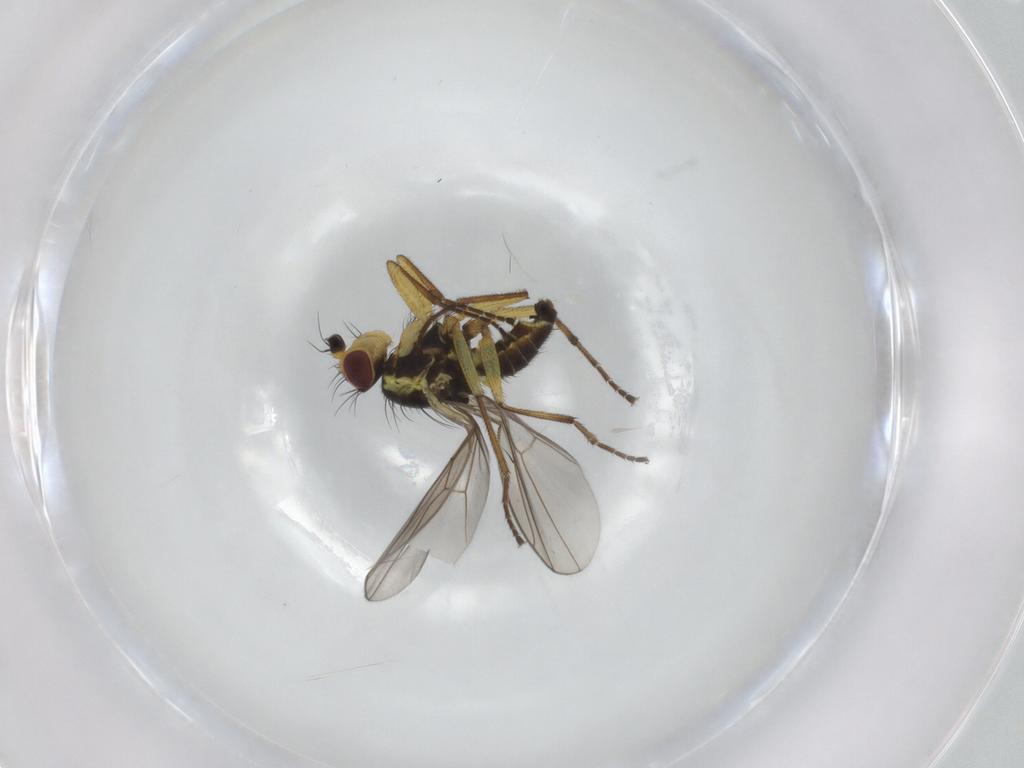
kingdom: Animalia
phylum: Arthropoda
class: Insecta
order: Diptera
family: Agromyzidae
